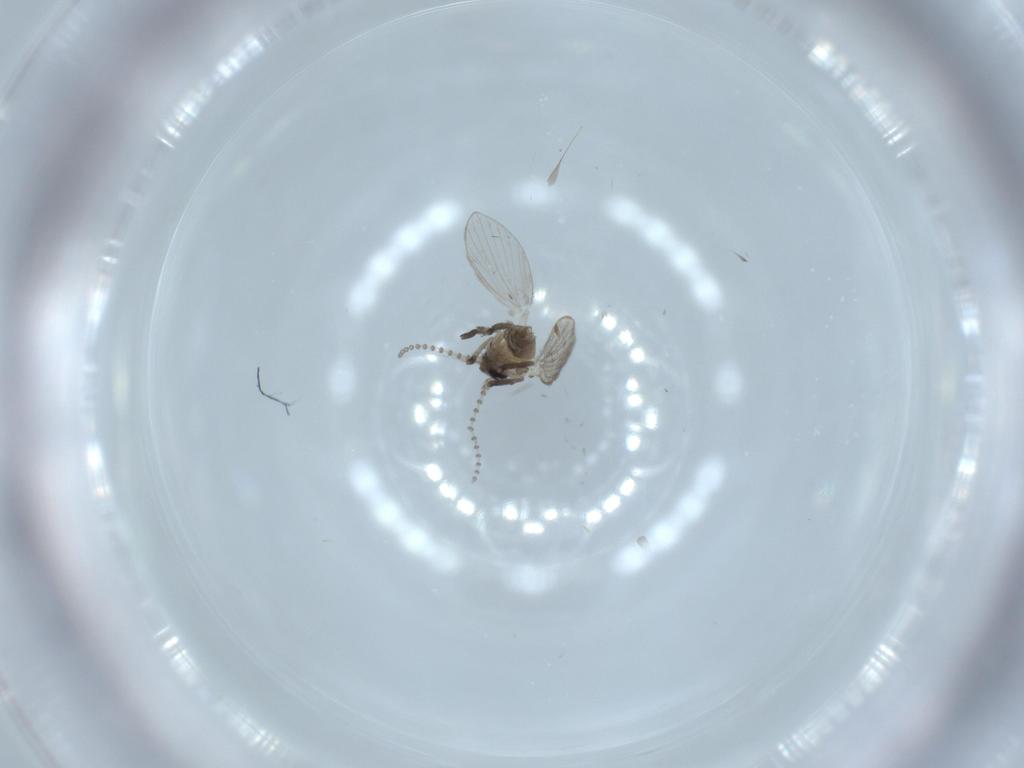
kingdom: Animalia
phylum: Arthropoda
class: Insecta
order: Diptera
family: Psychodidae
